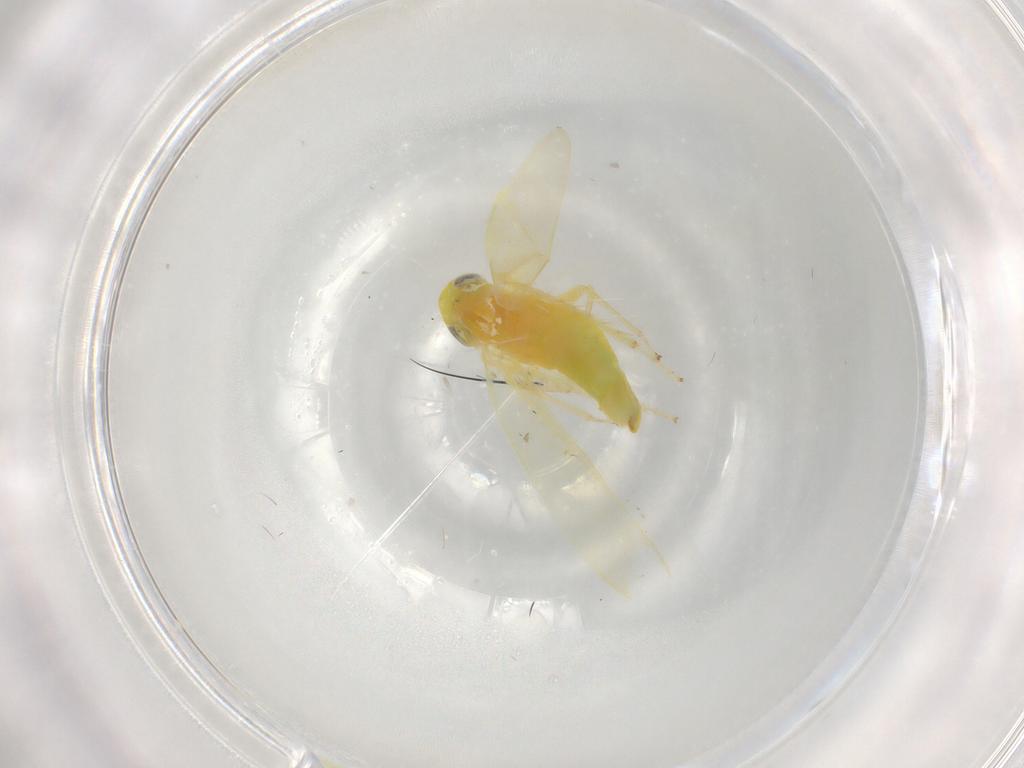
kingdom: Animalia
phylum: Arthropoda
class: Insecta
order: Hemiptera
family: Cicadellidae
